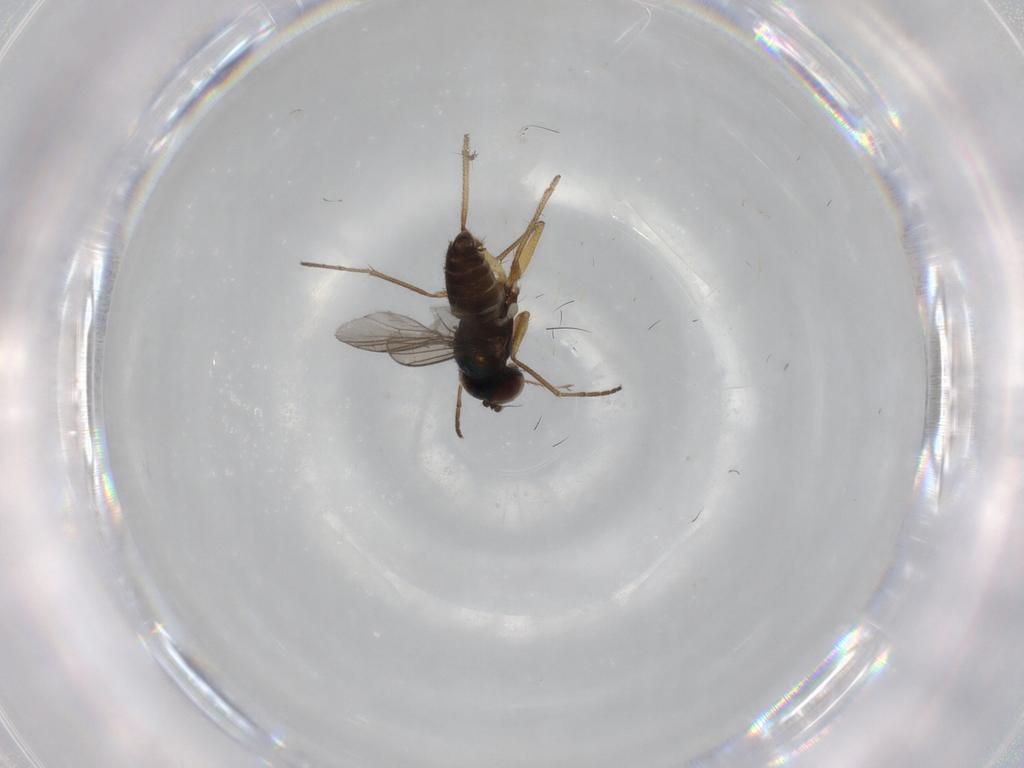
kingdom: Animalia
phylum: Arthropoda
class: Insecta
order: Diptera
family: Dolichopodidae
